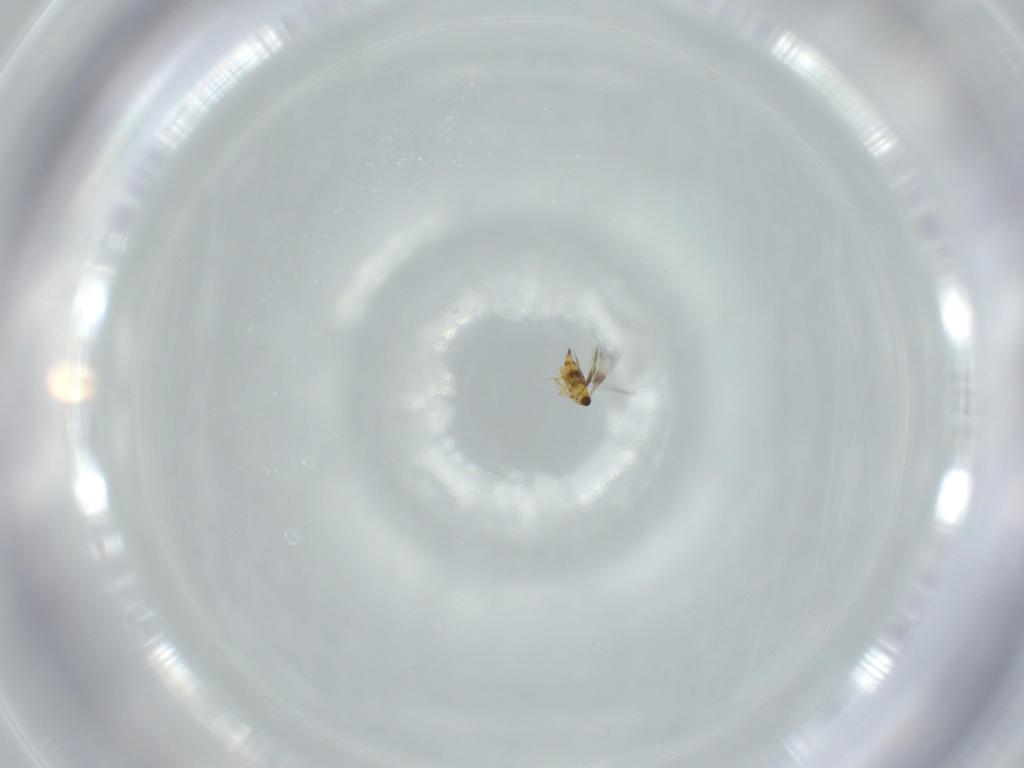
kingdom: Animalia
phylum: Arthropoda
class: Insecta
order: Hymenoptera
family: Signiphoridae
